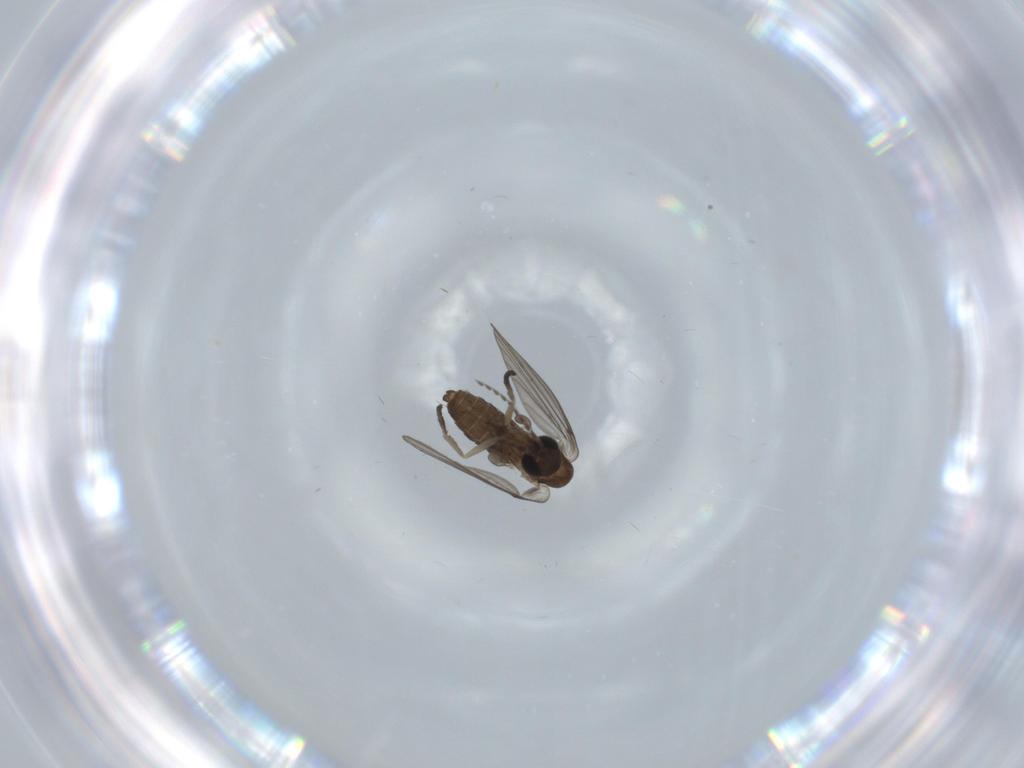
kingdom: Animalia
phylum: Arthropoda
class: Insecta
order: Diptera
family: Psychodidae
